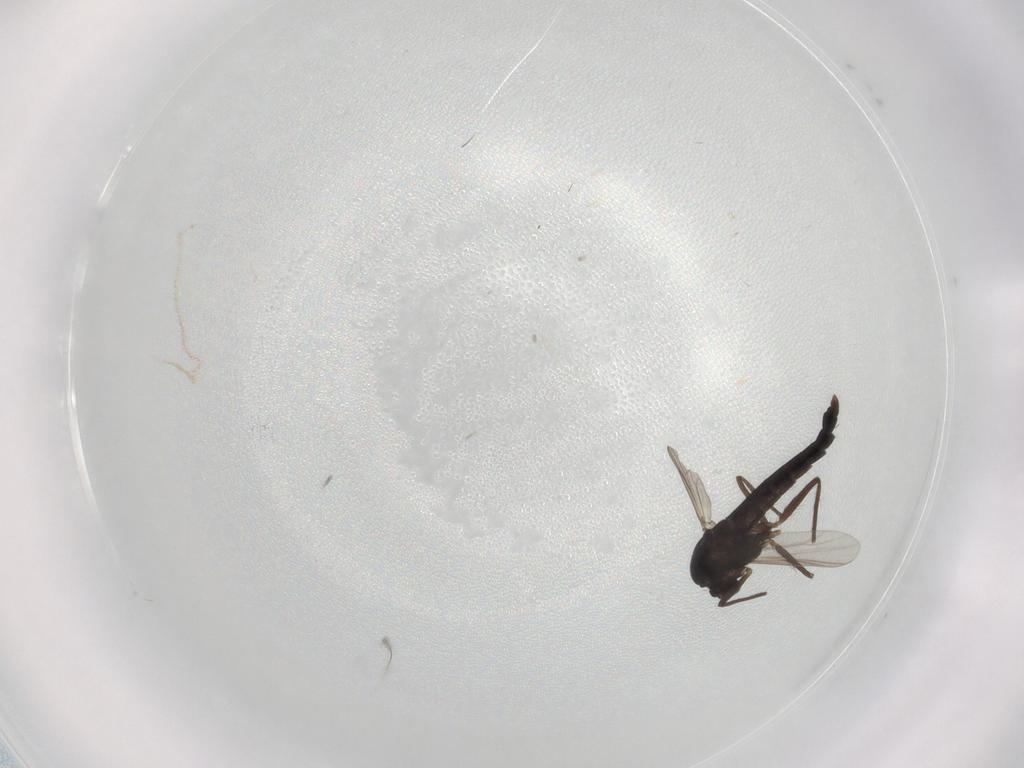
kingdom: Animalia
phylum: Arthropoda
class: Insecta
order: Diptera
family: Chironomidae
